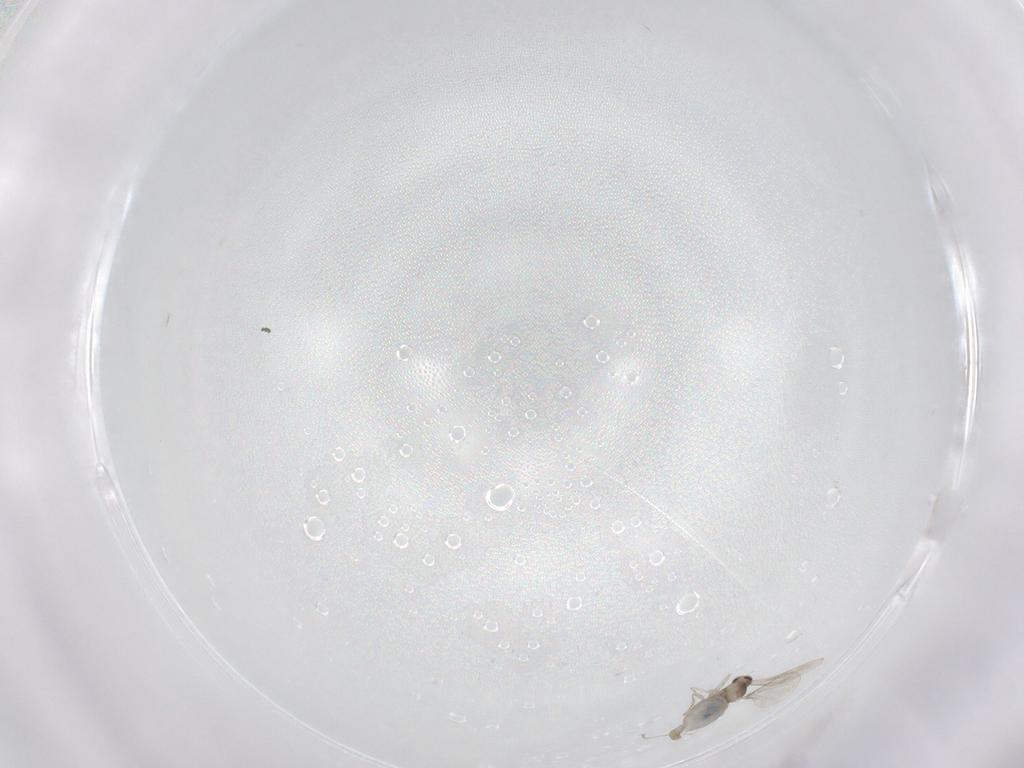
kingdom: Animalia
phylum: Arthropoda
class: Insecta
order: Diptera
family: Cecidomyiidae
